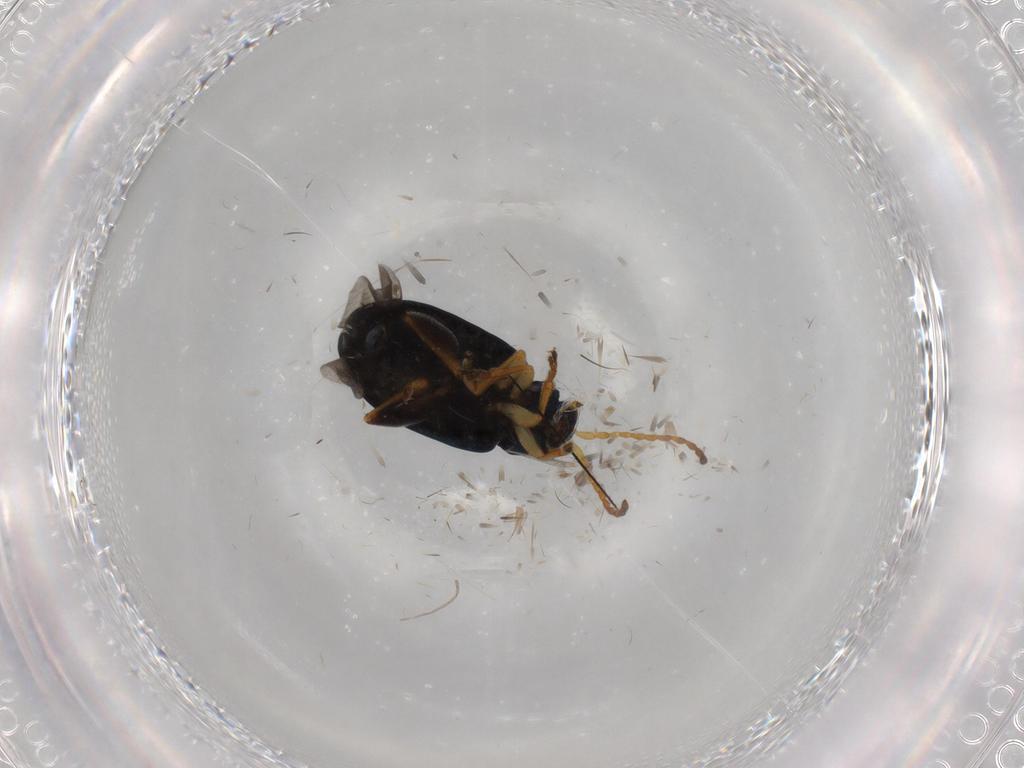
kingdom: Animalia
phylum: Arthropoda
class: Insecta
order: Coleoptera
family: Chrysomelidae
